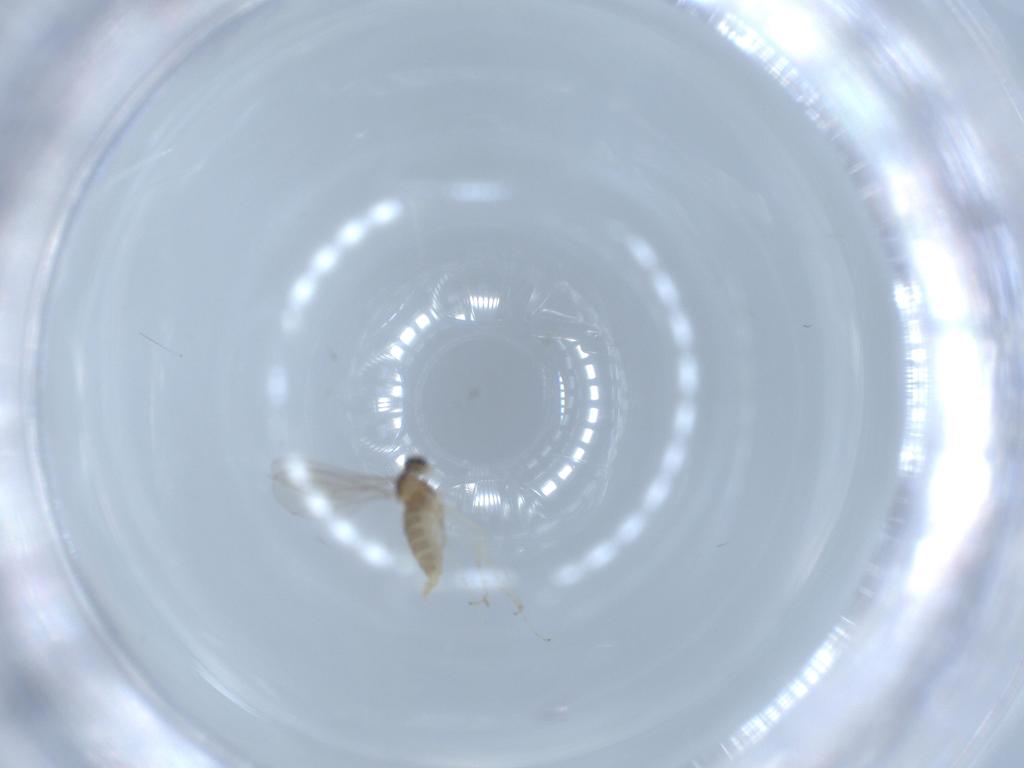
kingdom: Animalia
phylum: Arthropoda
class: Insecta
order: Diptera
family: Cecidomyiidae
